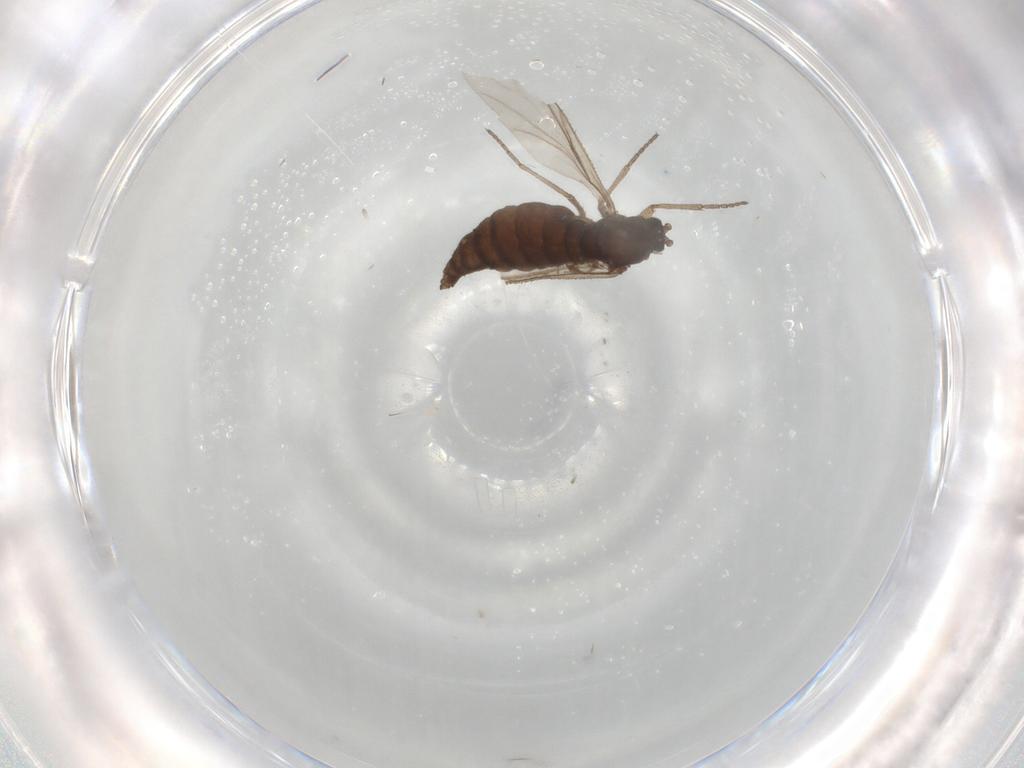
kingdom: Animalia
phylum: Arthropoda
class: Insecta
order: Diptera
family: Sciaridae
